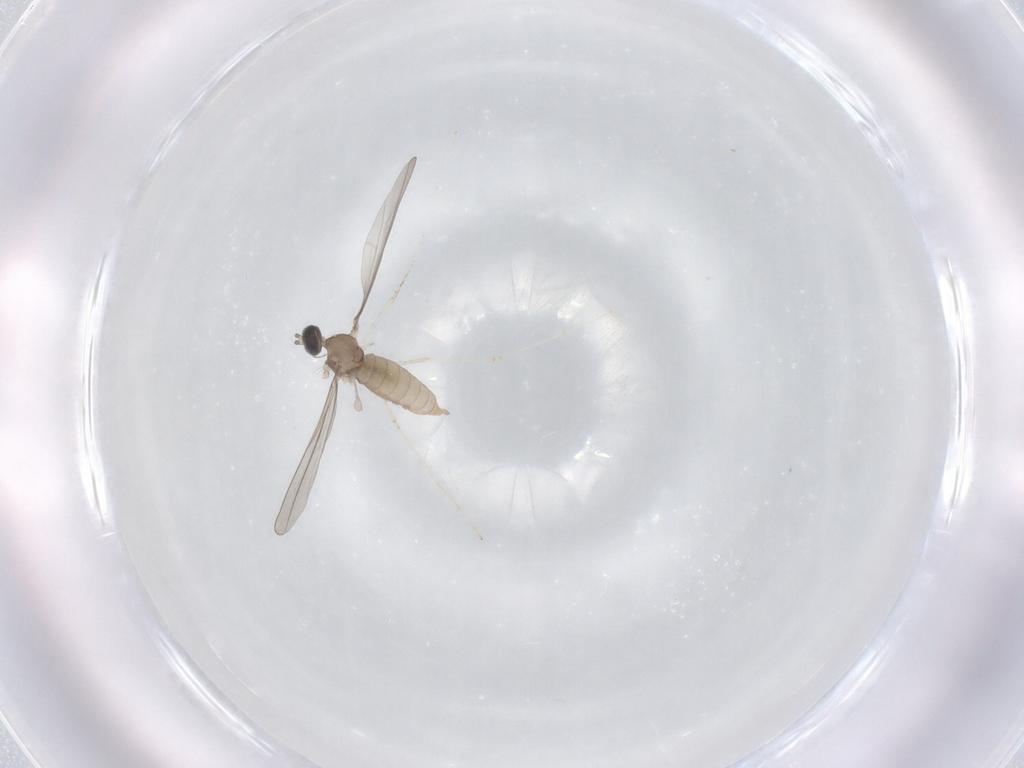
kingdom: Animalia
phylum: Arthropoda
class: Insecta
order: Diptera
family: Cecidomyiidae
